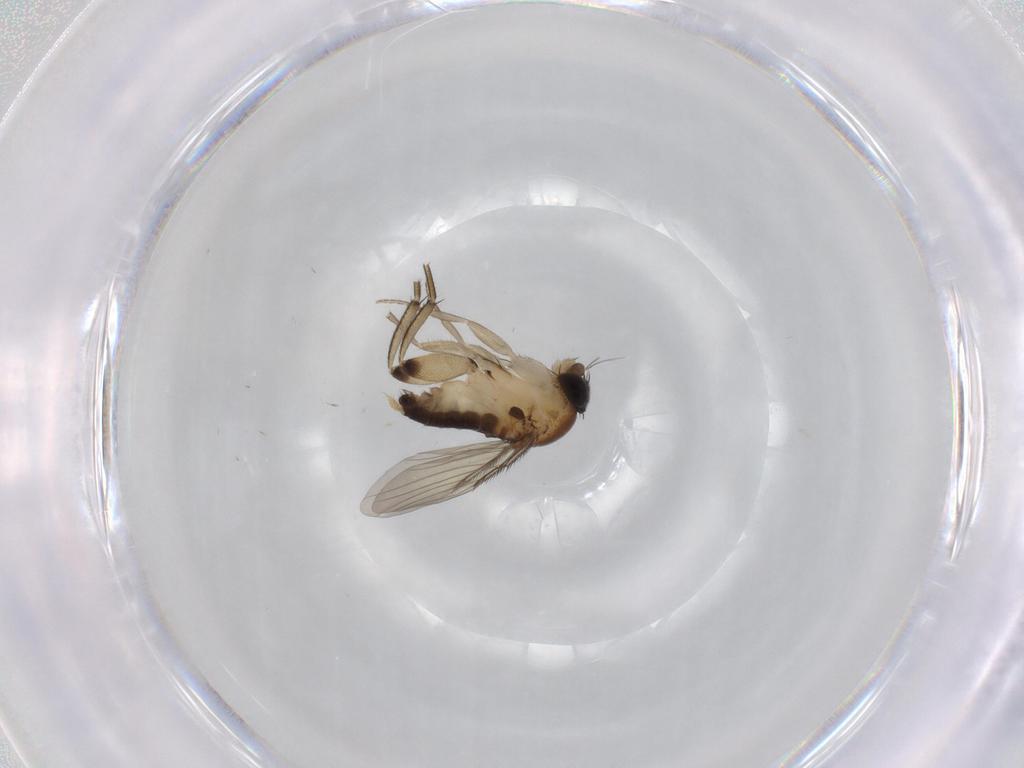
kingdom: Animalia
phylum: Arthropoda
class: Insecta
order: Diptera
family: Phoridae
